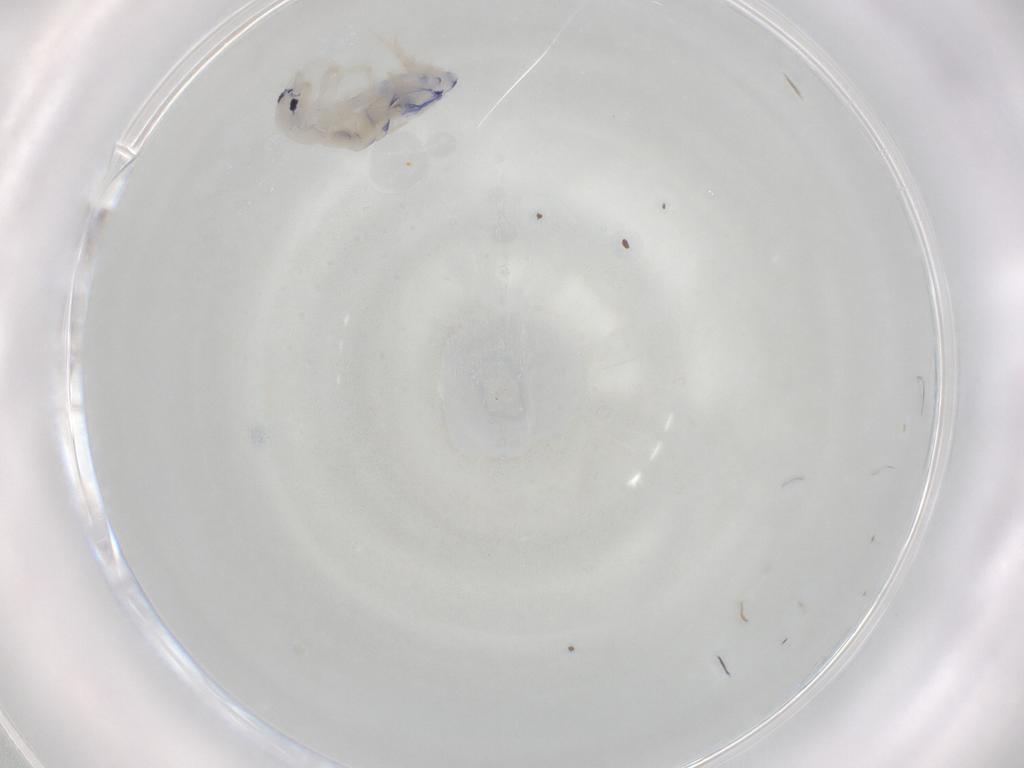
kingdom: Animalia
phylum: Arthropoda
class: Collembola
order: Entomobryomorpha
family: Entomobryidae
